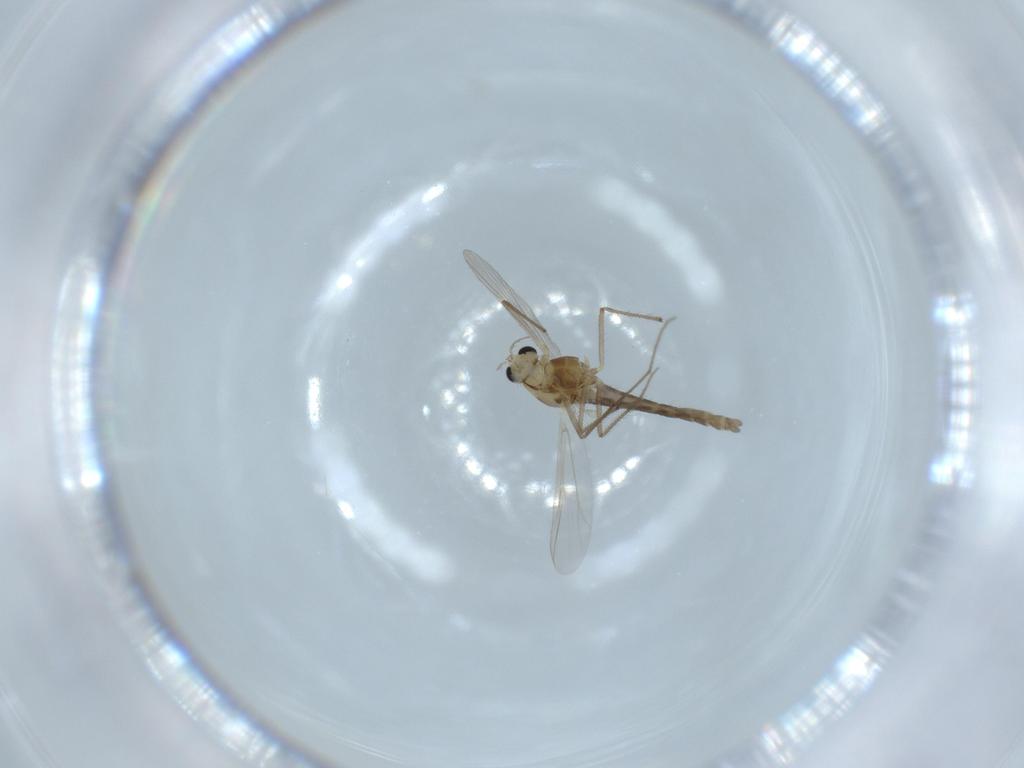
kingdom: Animalia
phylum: Arthropoda
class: Insecta
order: Diptera
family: Chironomidae
